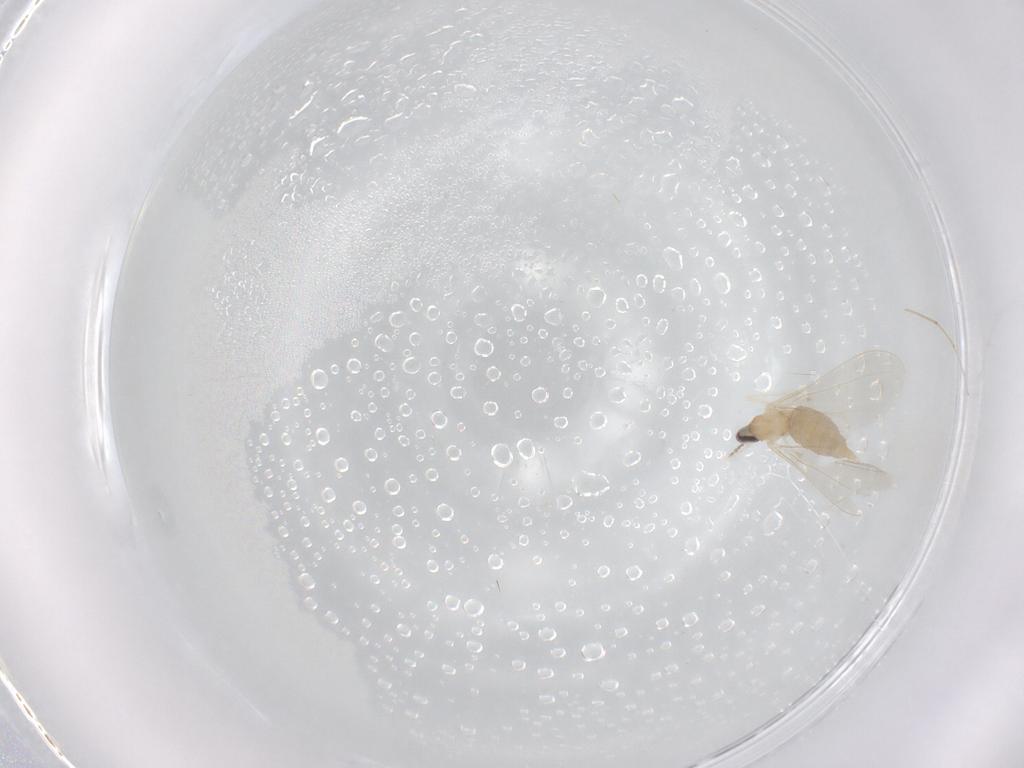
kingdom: Animalia
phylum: Arthropoda
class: Insecta
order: Diptera
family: Cecidomyiidae
